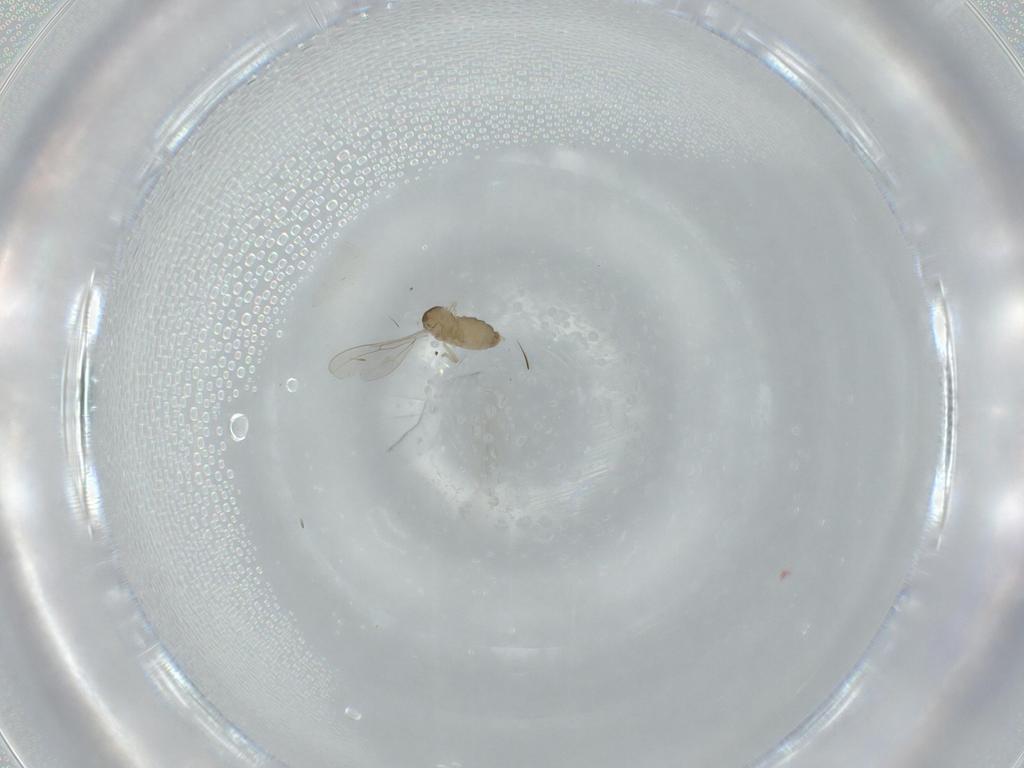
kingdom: Animalia
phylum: Arthropoda
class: Insecta
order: Diptera
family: Cecidomyiidae
